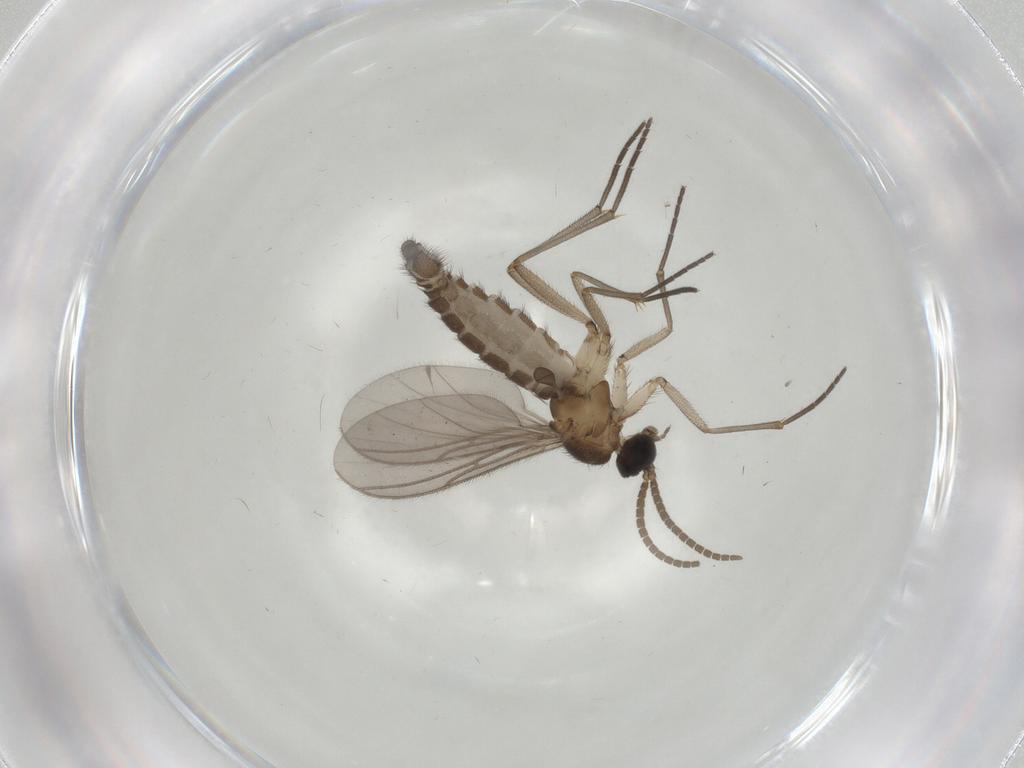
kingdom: Animalia
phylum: Arthropoda
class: Insecta
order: Diptera
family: Cecidomyiidae
